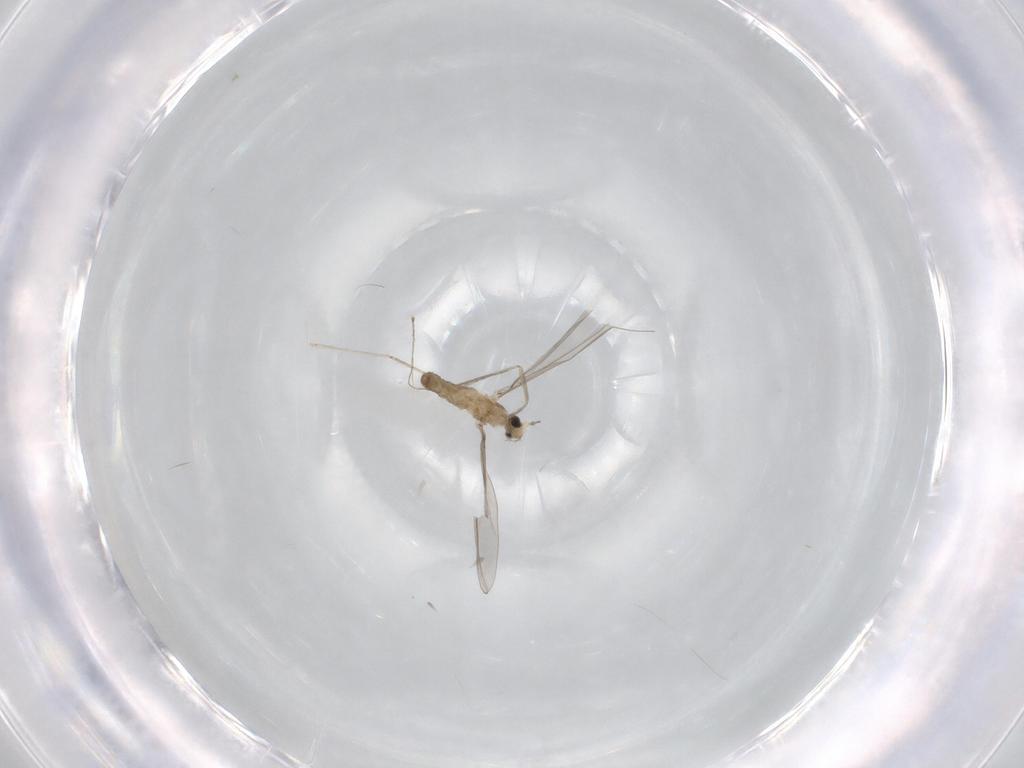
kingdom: Animalia
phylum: Arthropoda
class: Insecta
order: Diptera
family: Cecidomyiidae
